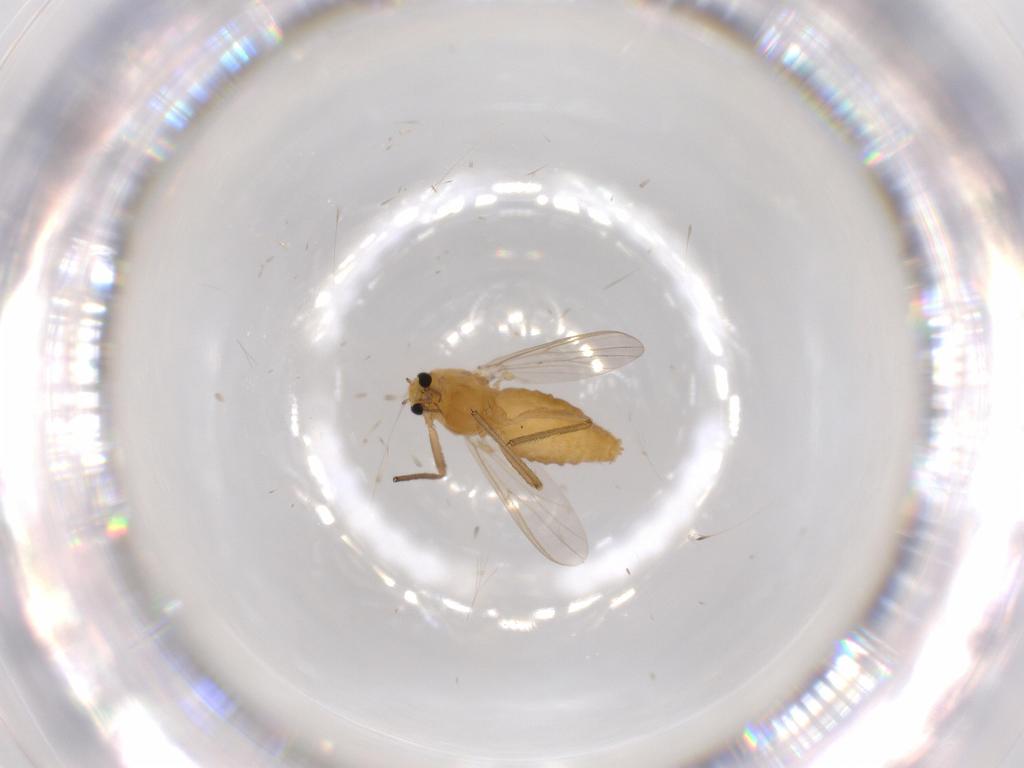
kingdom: Animalia
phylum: Arthropoda
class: Insecta
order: Diptera
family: Chironomidae
